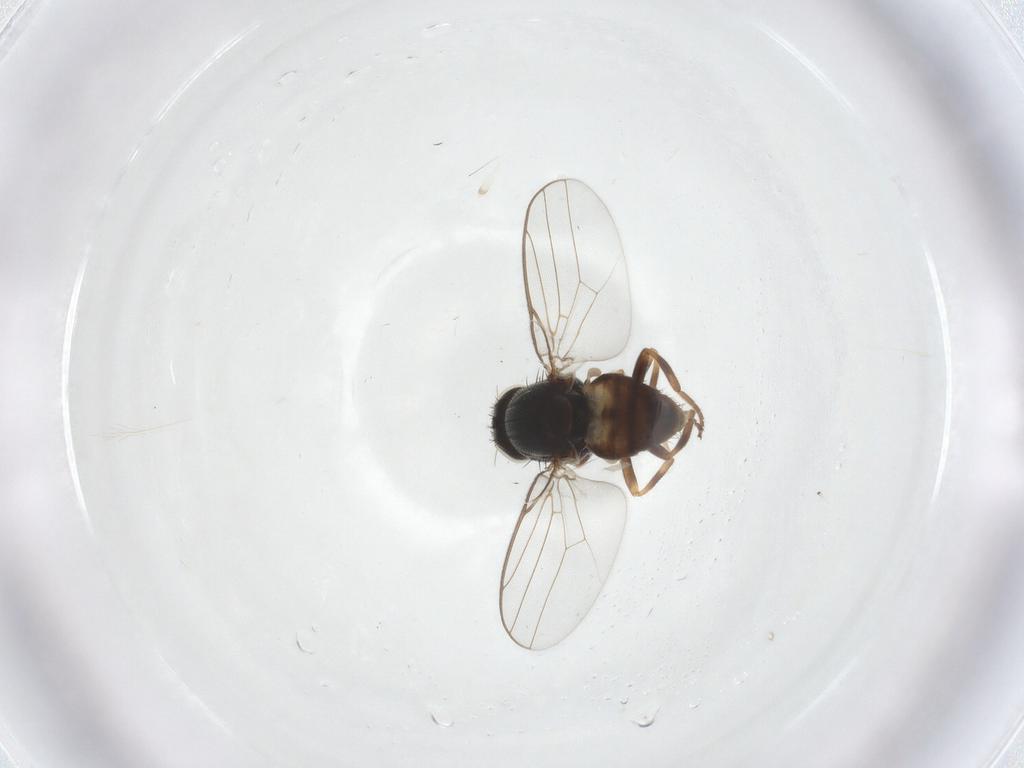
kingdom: Animalia
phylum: Arthropoda
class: Insecta
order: Diptera
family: Chloropidae
